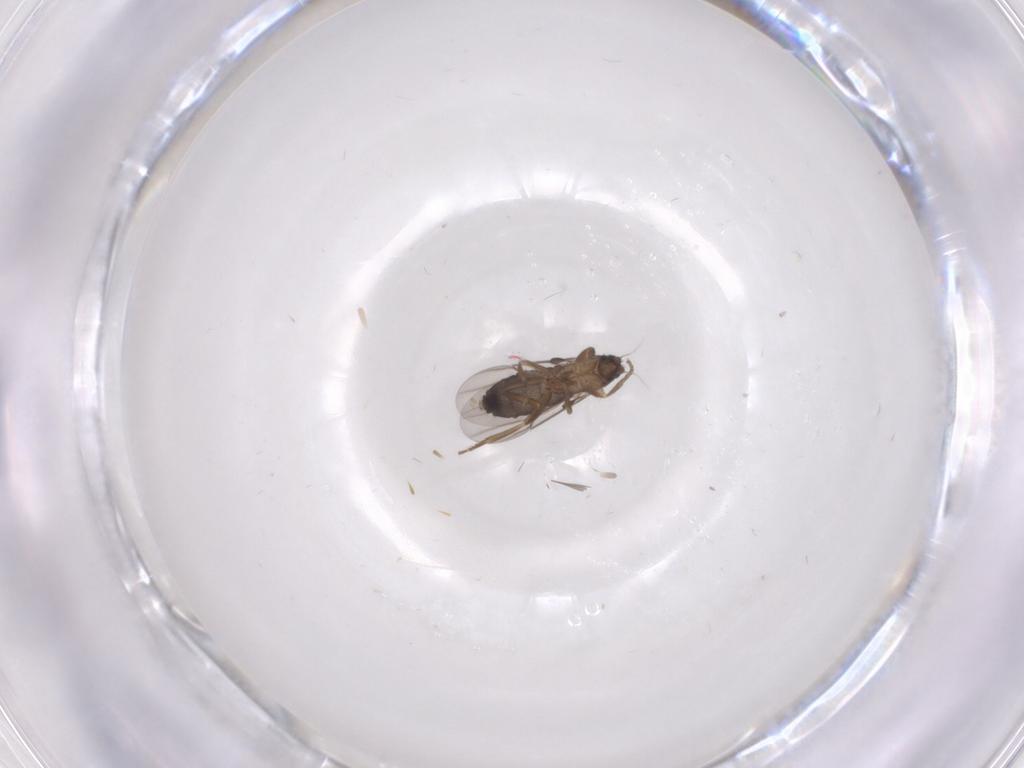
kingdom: Animalia
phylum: Arthropoda
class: Insecta
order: Diptera
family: Phoridae
